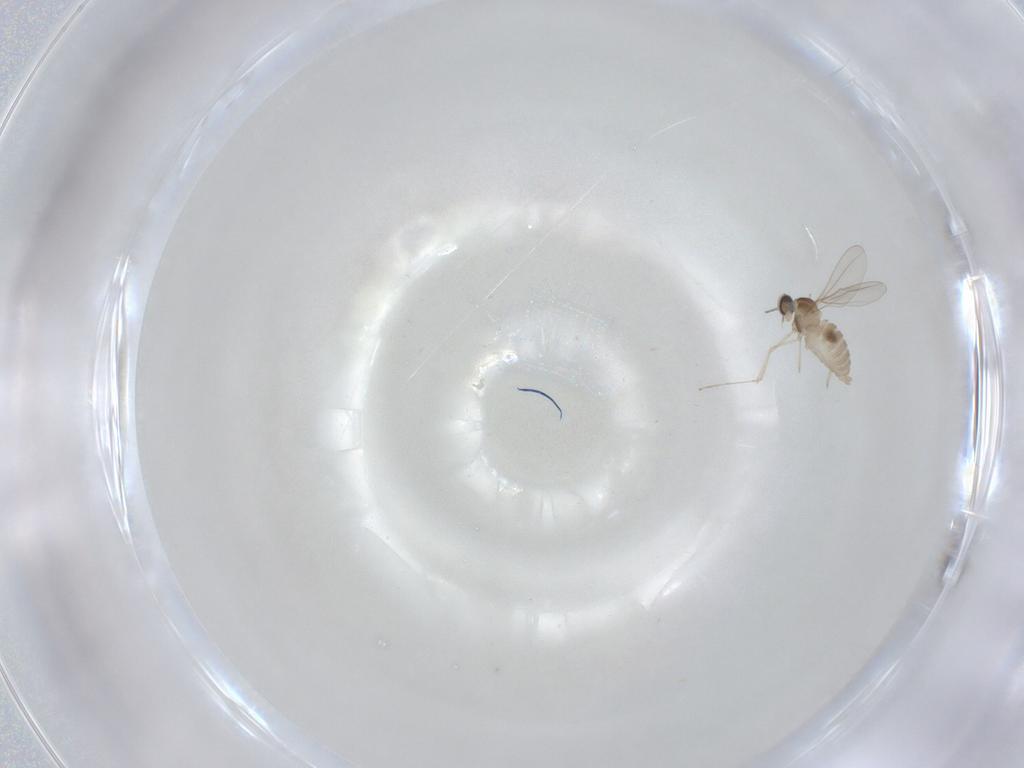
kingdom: Animalia
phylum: Arthropoda
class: Insecta
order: Diptera
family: Cecidomyiidae
